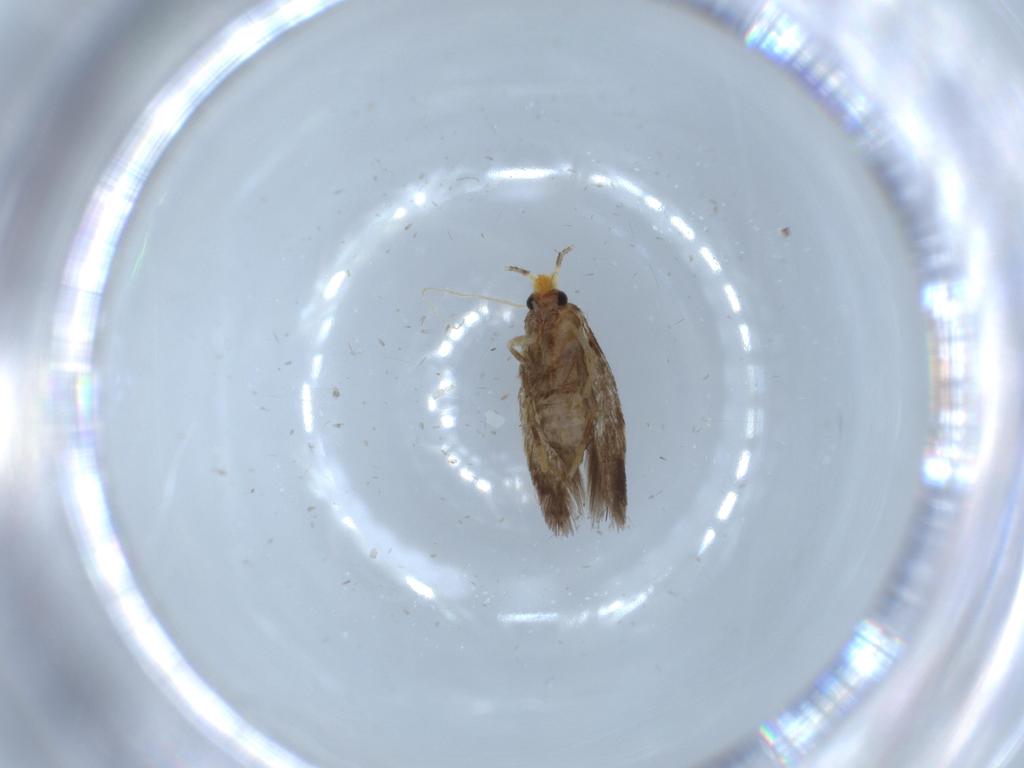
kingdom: Animalia
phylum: Arthropoda
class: Insecta
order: Lepidoptera
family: Nepticulidae
